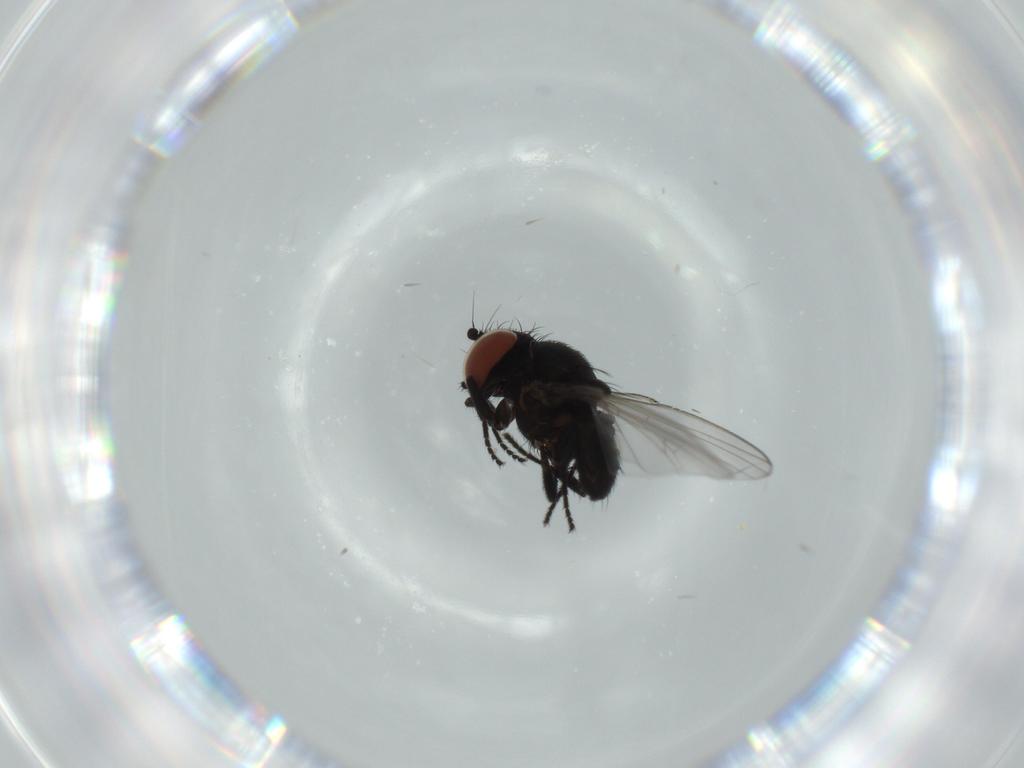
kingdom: Animalia
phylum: Arthropoda
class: Insecta
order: Diptera
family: Milichiidae
